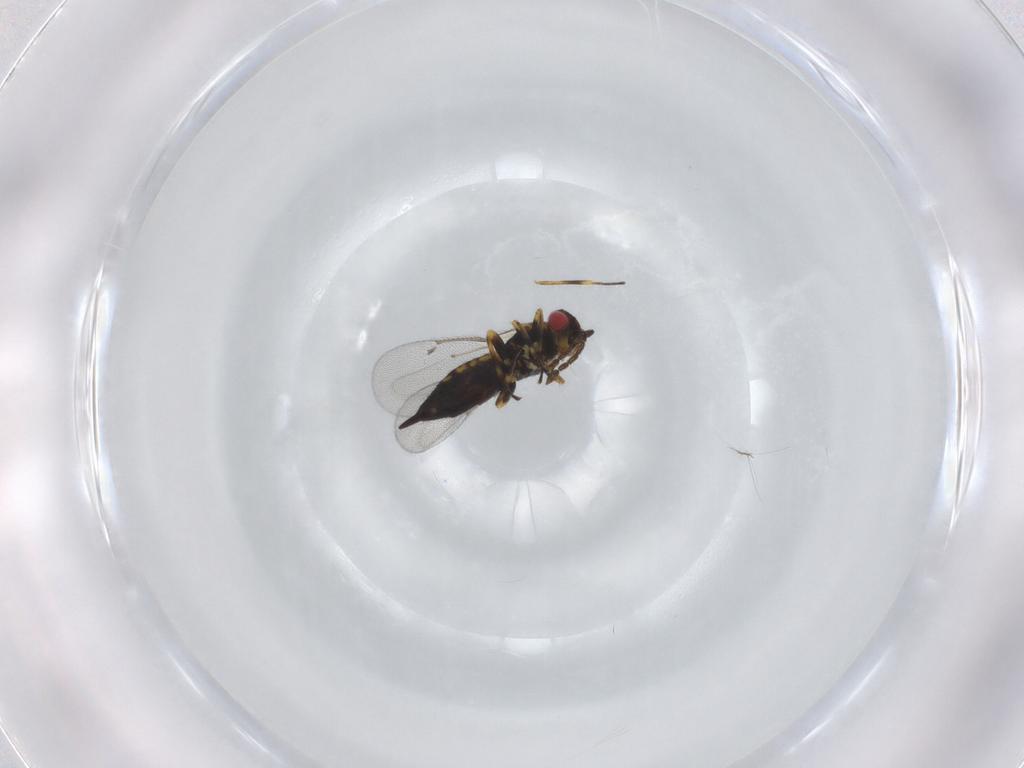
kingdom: Animalia
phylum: Arthropoda
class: Insecta
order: Hymenoptera
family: Eulophidae
